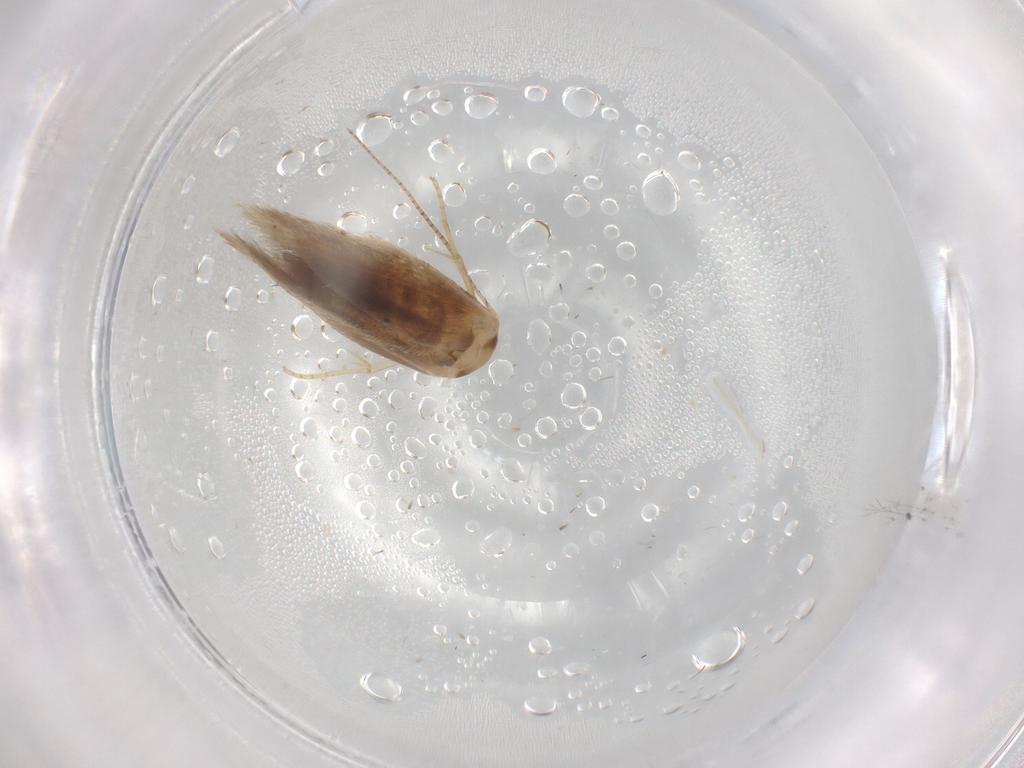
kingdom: Animalia
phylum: Arthropoda
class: Insecta
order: Lepidoptera
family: Bucculatricidae
